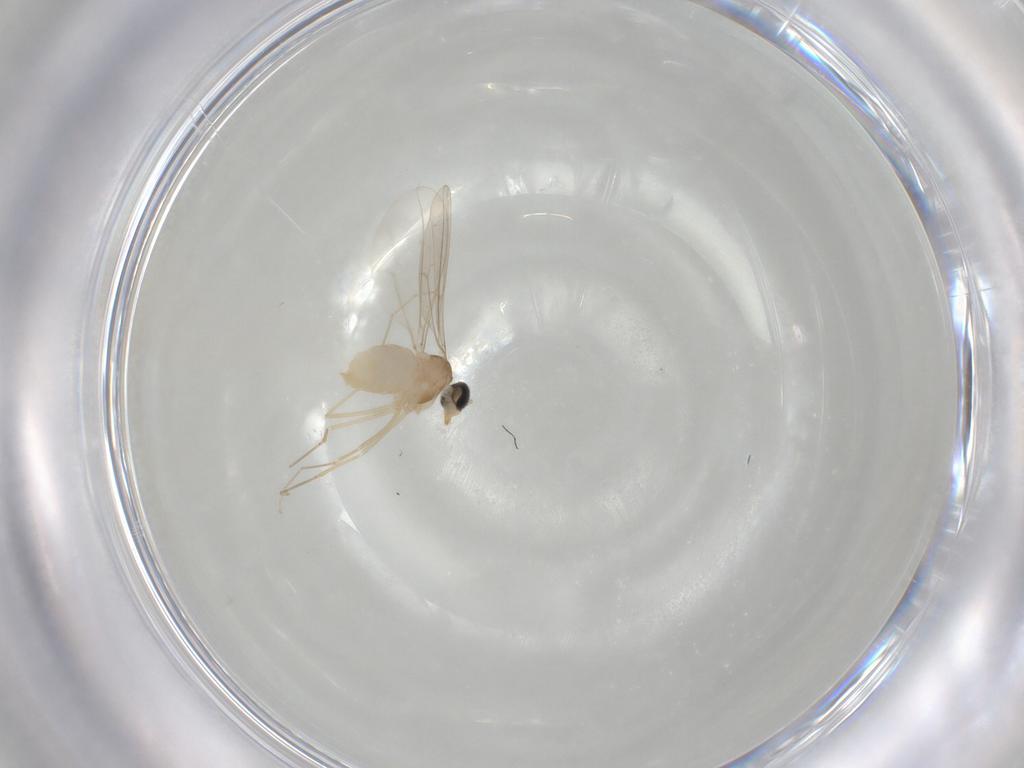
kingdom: Animalia
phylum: Arthropoda
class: Insecta
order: Diptera
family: Cecidomyiidae
